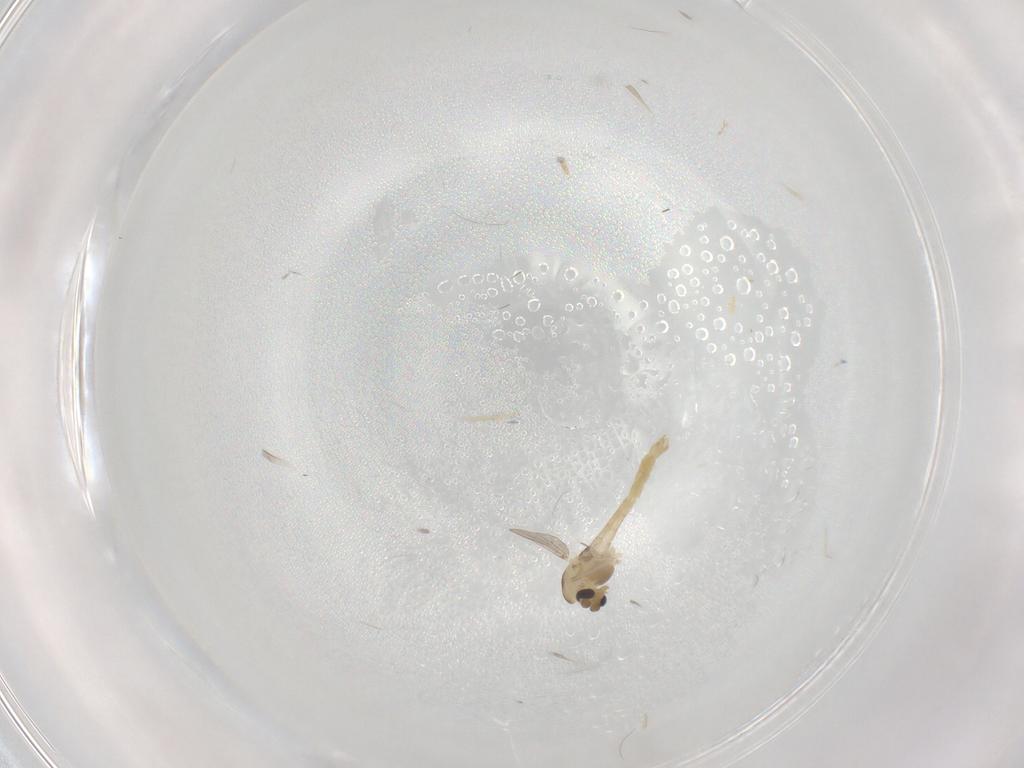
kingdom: Animalia
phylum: Arthropoda
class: Insecta
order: Diptera
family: Chironomidae
